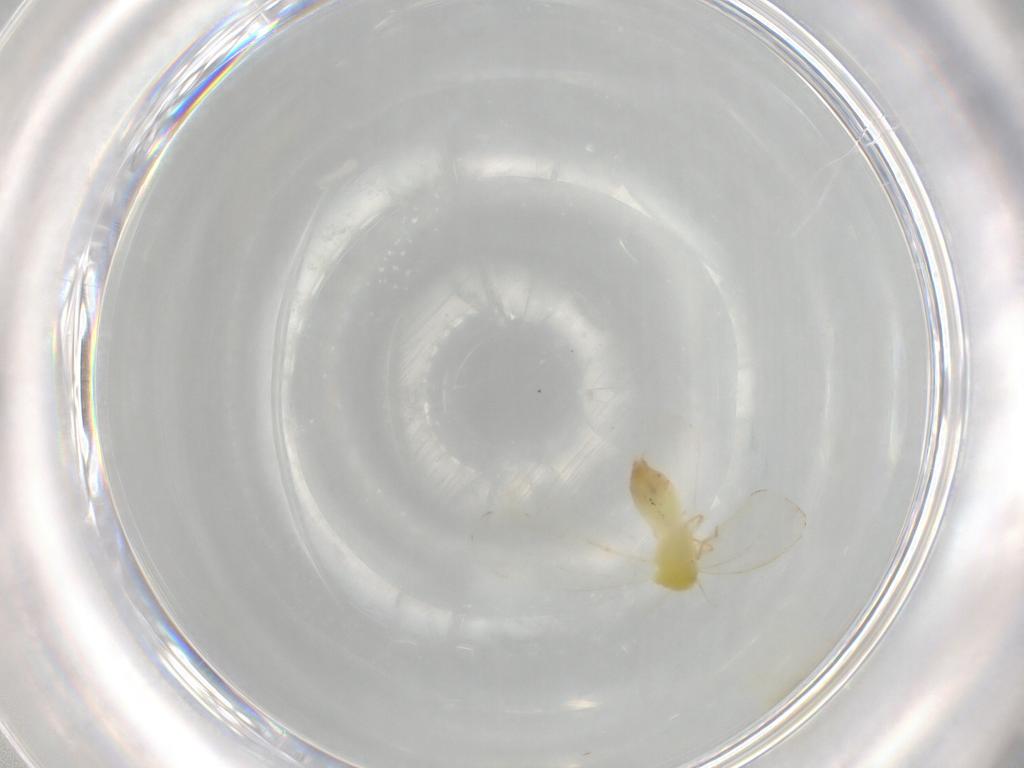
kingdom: Animalia
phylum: Arthropoda
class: Insecta
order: Hemiptera
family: Aleyrodidae
